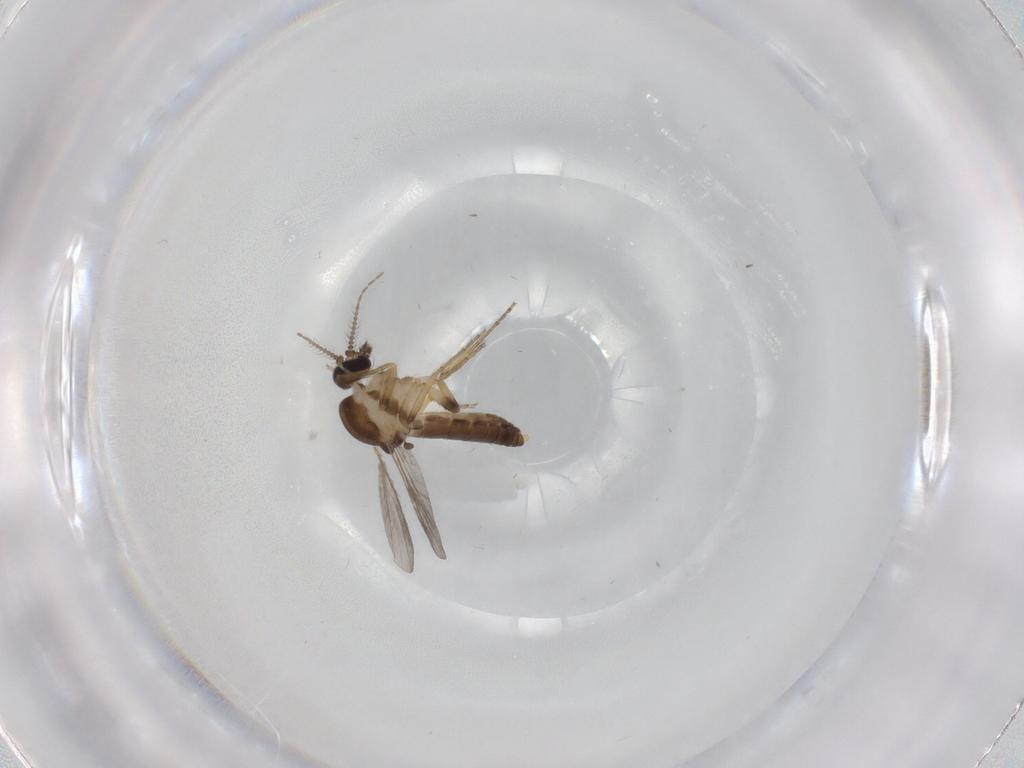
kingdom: Animalia
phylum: Arthropoda
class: Insecta
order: Diptera
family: Ceratopogonidae
